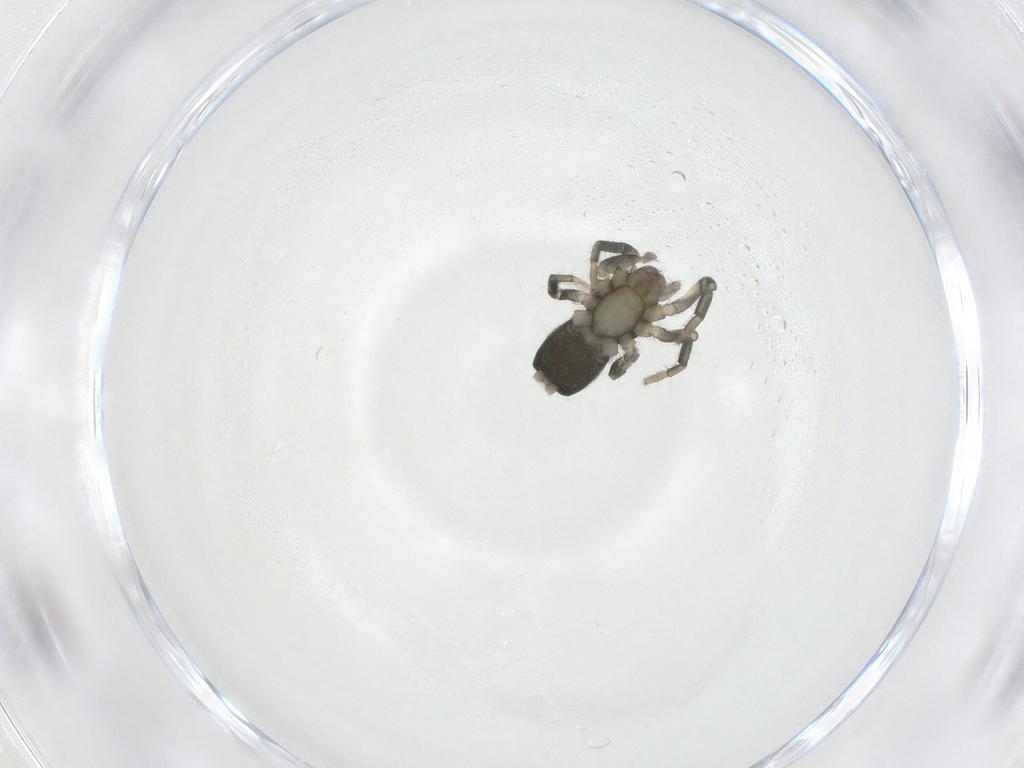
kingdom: Animalia
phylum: Arthropoda
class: Arachnida
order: Araneae
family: Gnaphosidae
